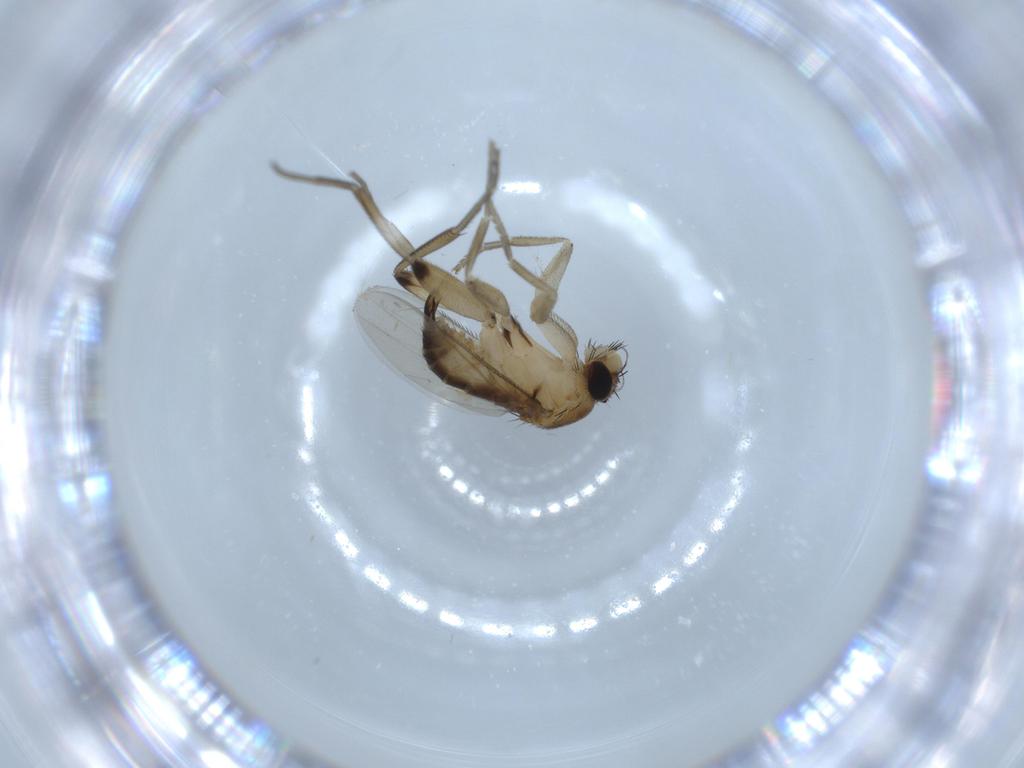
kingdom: Animalia
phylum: Arthropoda
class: Insecta
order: Diptera
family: Phoridae
